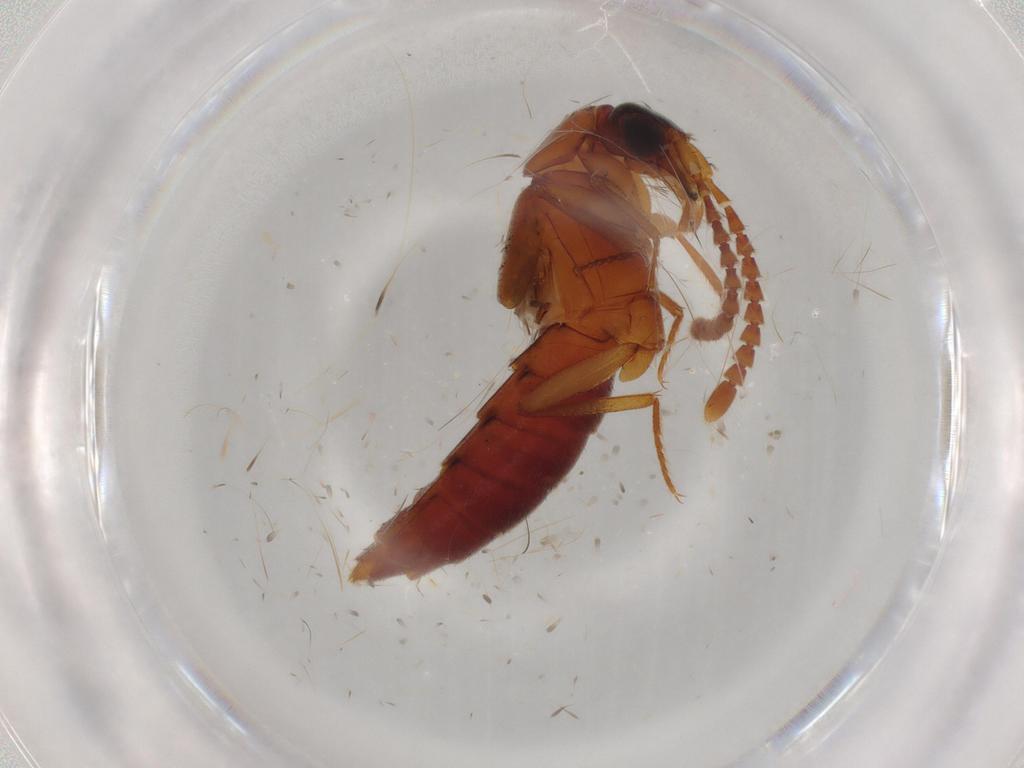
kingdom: Animalia
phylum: Arthropoda
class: Insecta
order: Coleoptera
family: Staphylinidae
